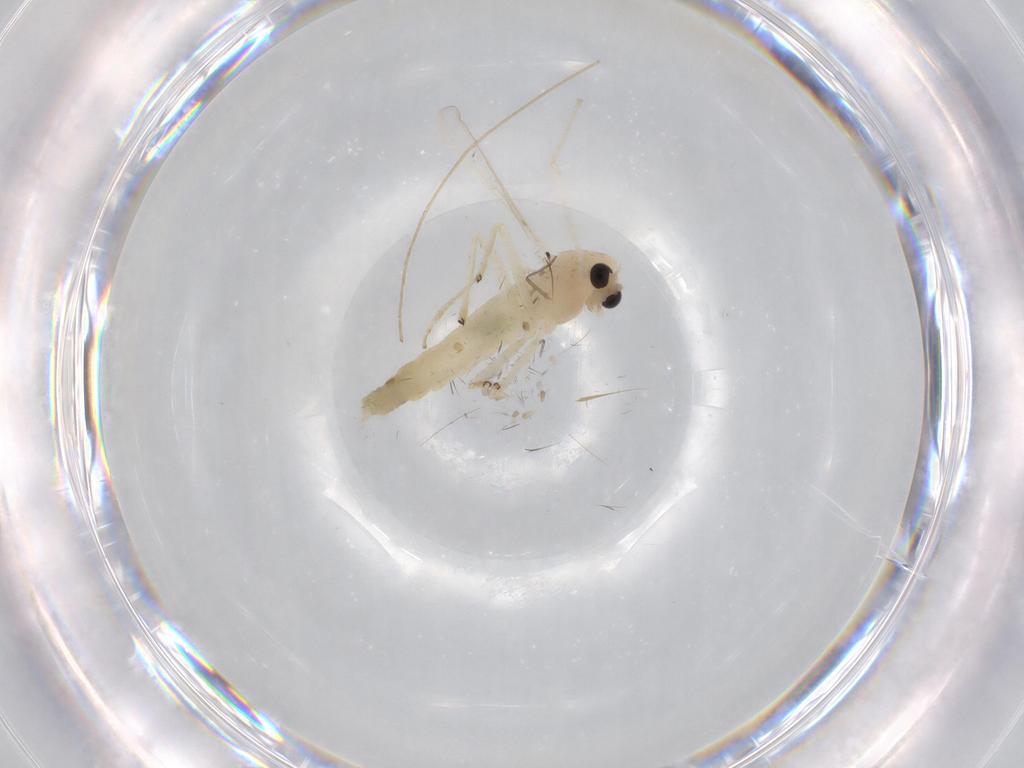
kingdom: Animalia
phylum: Arthropoda
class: Insecta
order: Diptera
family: Chironomidae
